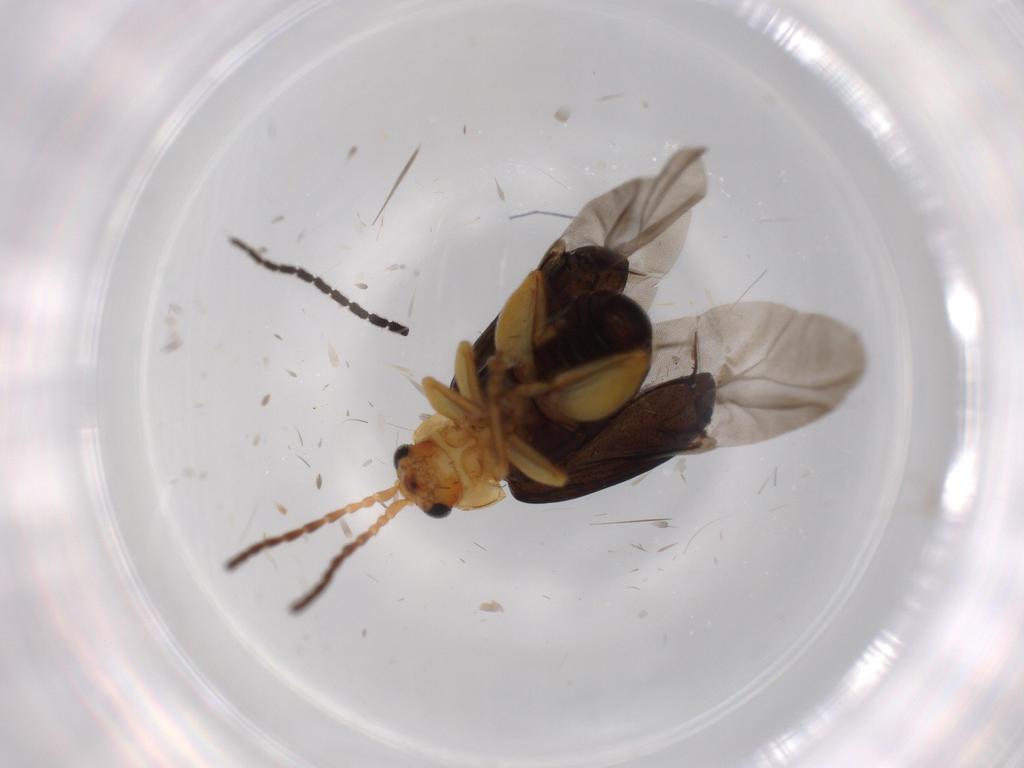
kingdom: Animalia
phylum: Arthropoda
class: Insecta
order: Coleoptera
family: Chrysomelidae
